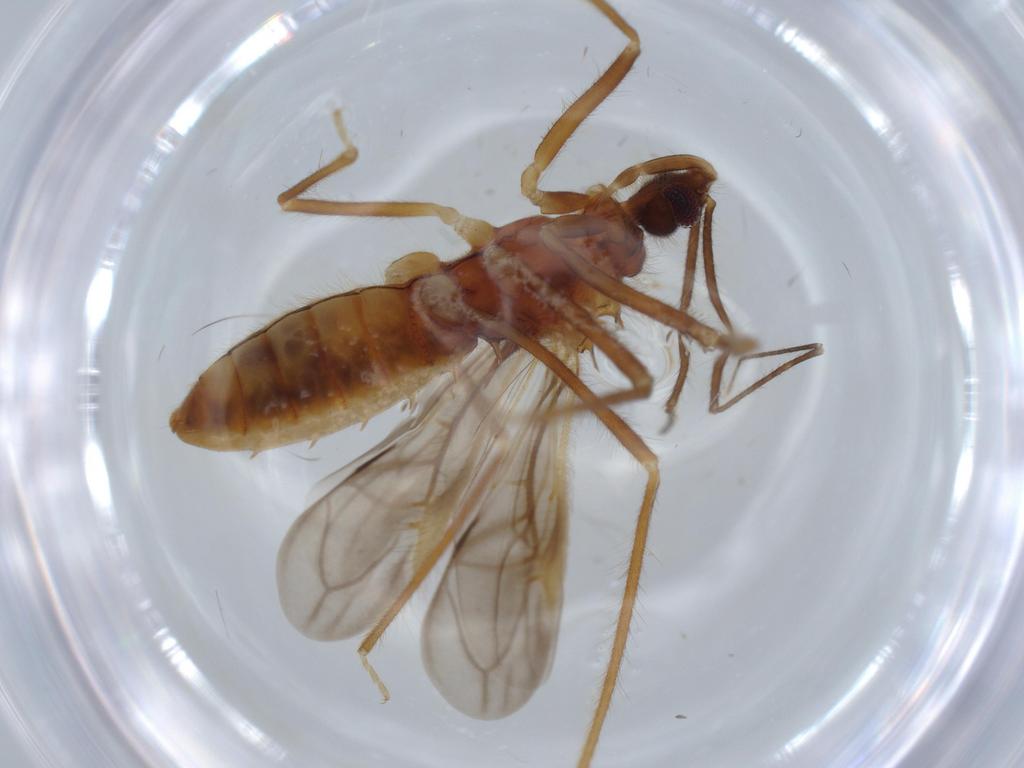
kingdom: Animalia
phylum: Arthropoda
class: Insecta
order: Hemiptera
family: Reduviidae
